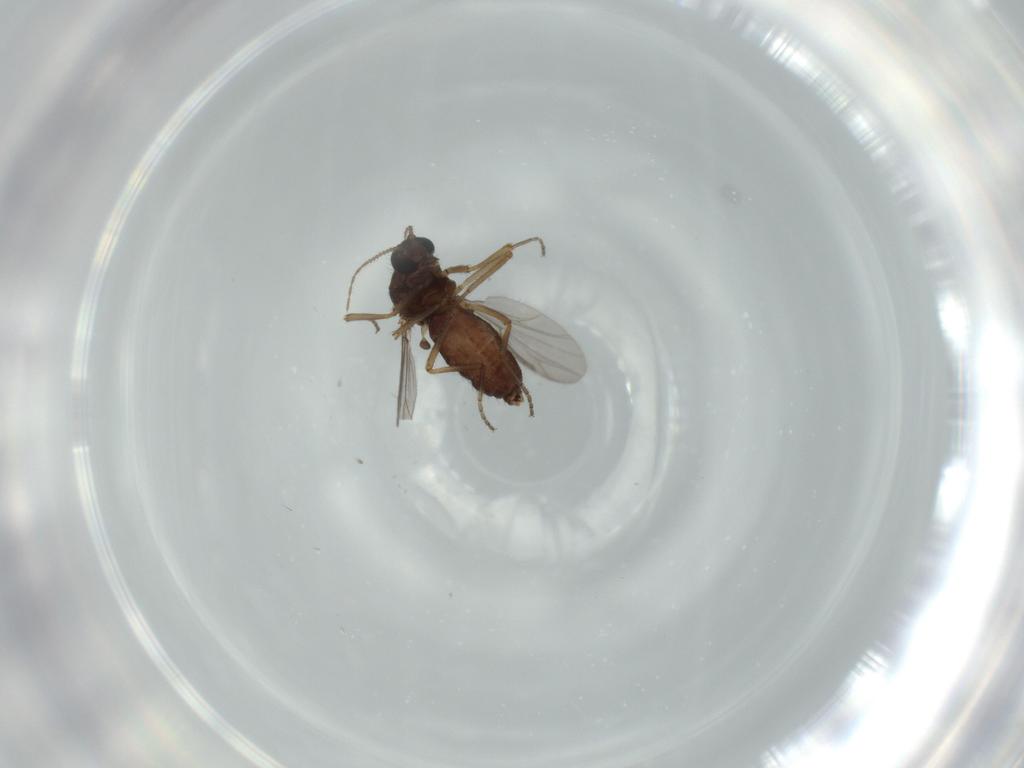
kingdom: Animalia
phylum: Arthropoda
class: Insecta
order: Diptera
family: Ceratopogonidae
